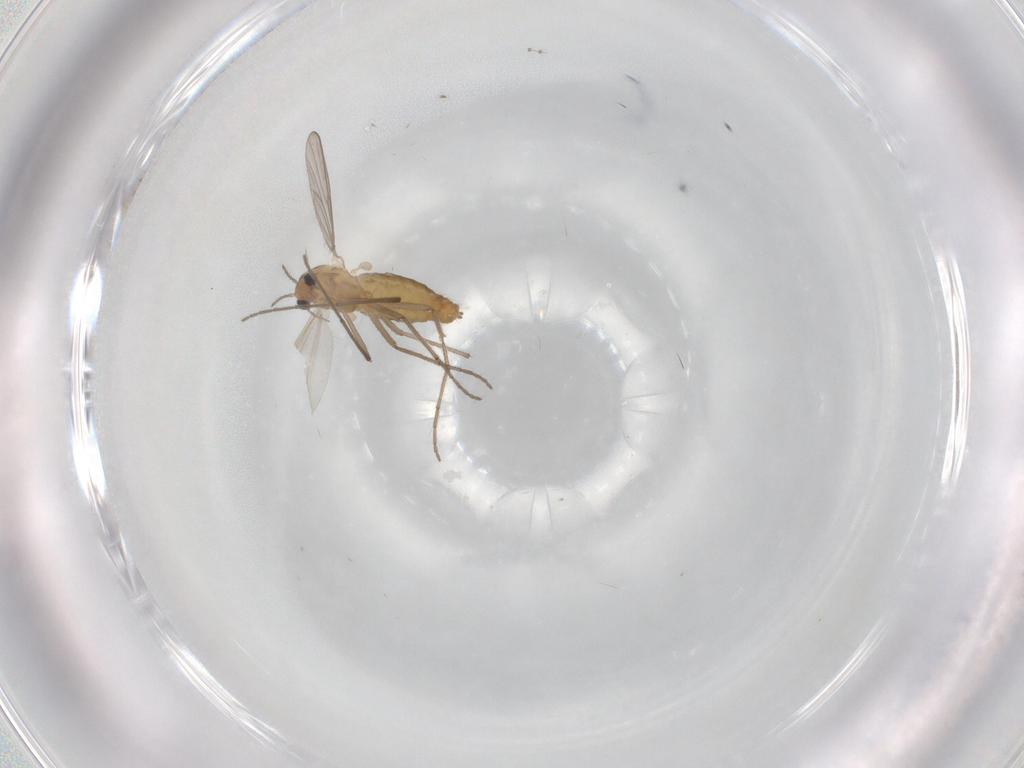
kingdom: Animalia
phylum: Arthropoda
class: Insecta
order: Diptera
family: Chironomidae
